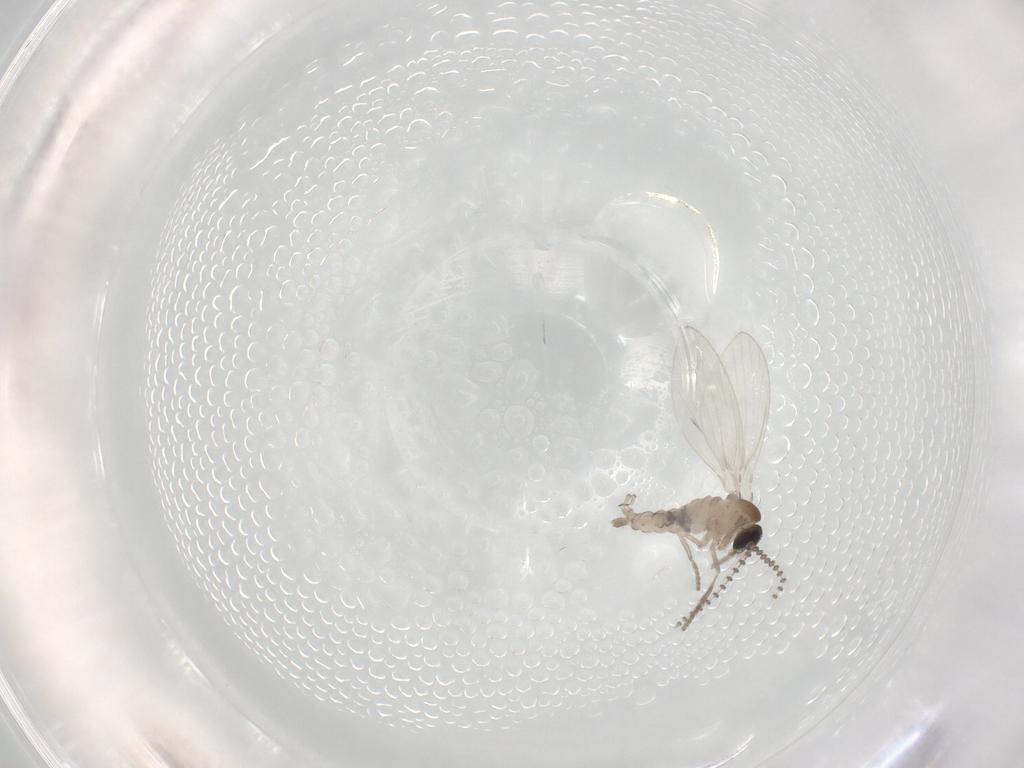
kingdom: Animalia
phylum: Arthropoda
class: Insecta
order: Diptera
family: Psychodidae
